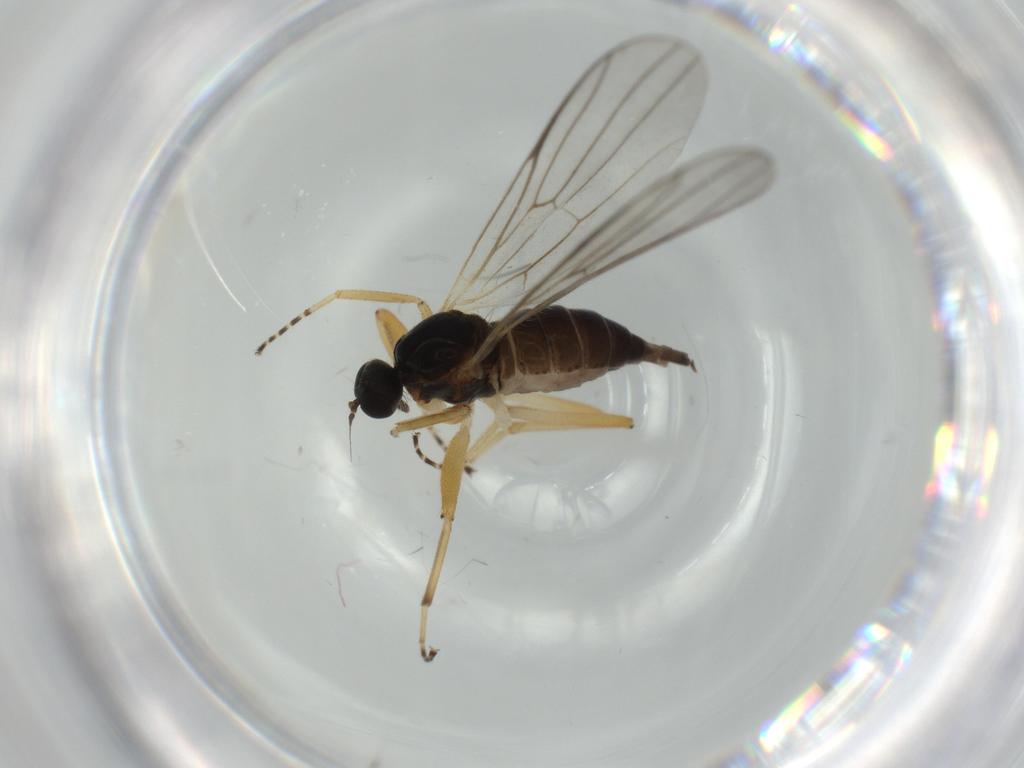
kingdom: Animalia
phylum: Arthropoda
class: Insecta
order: Diptera
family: Hybotidae
